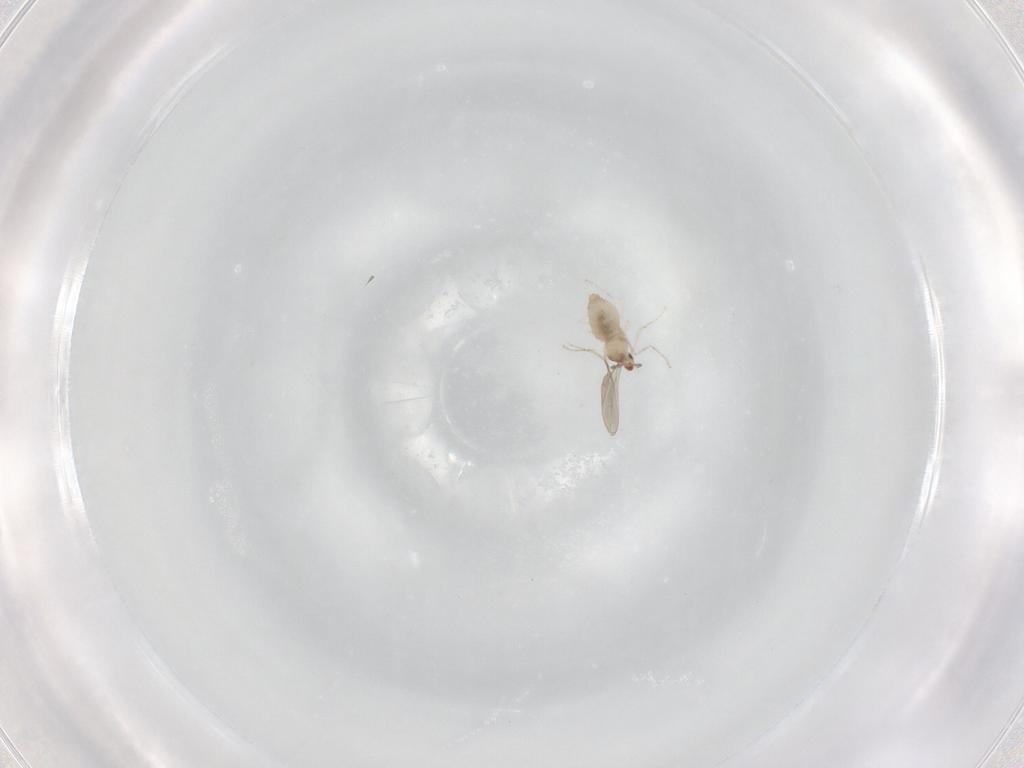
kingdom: Animalia
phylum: Arthropoda
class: Insecta
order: Diptera
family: Cecidomyiidae
